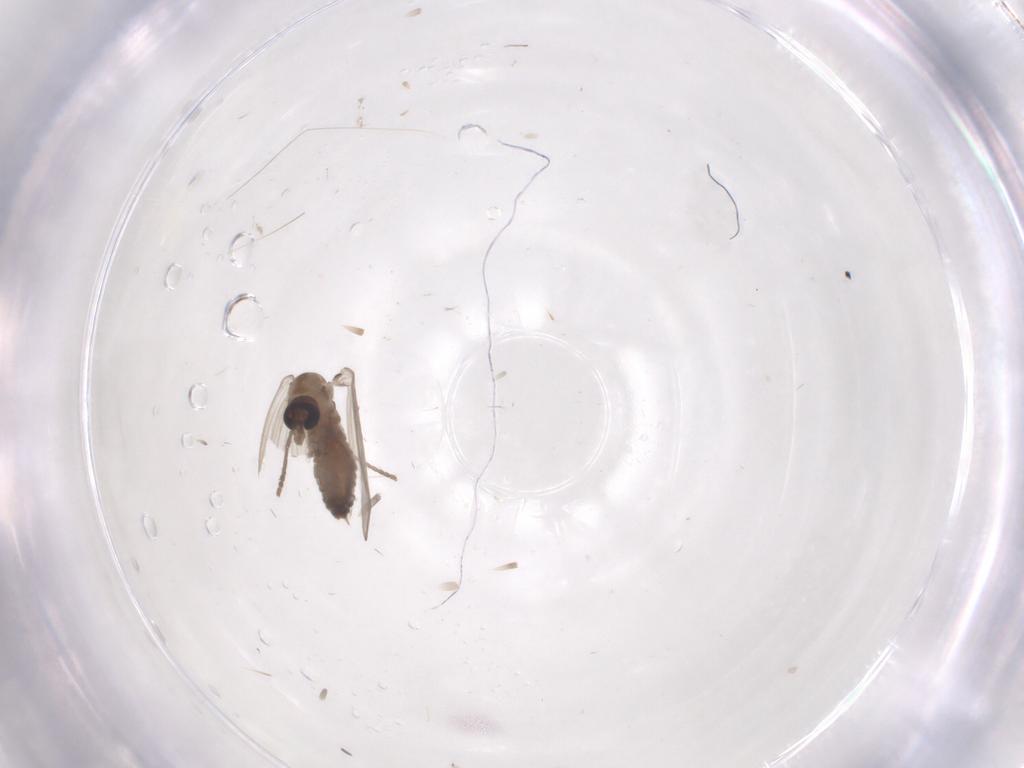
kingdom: Animalia
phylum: Arthropoda
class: Insecta
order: Diptera
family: Psychodidae
